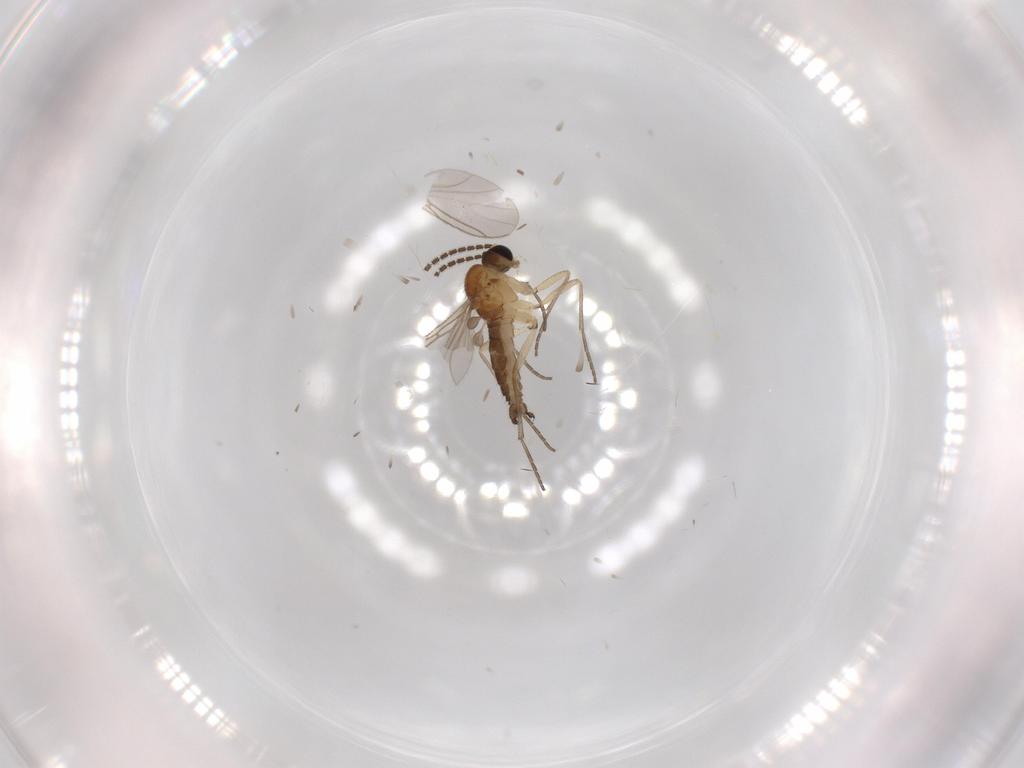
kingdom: Animalia
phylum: Arthropoda
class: Insecta
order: Diptera
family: Sciaridae
